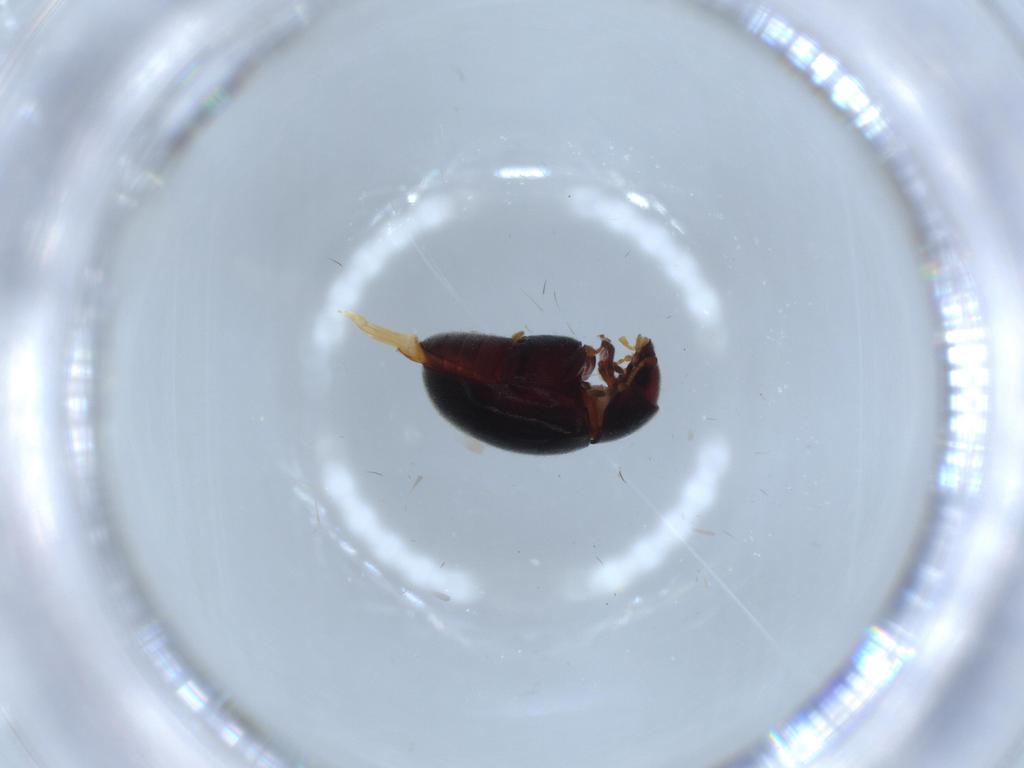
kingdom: Animalia
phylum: Arthropoda
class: Insecta
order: Coleoptera
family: Ptinidae
